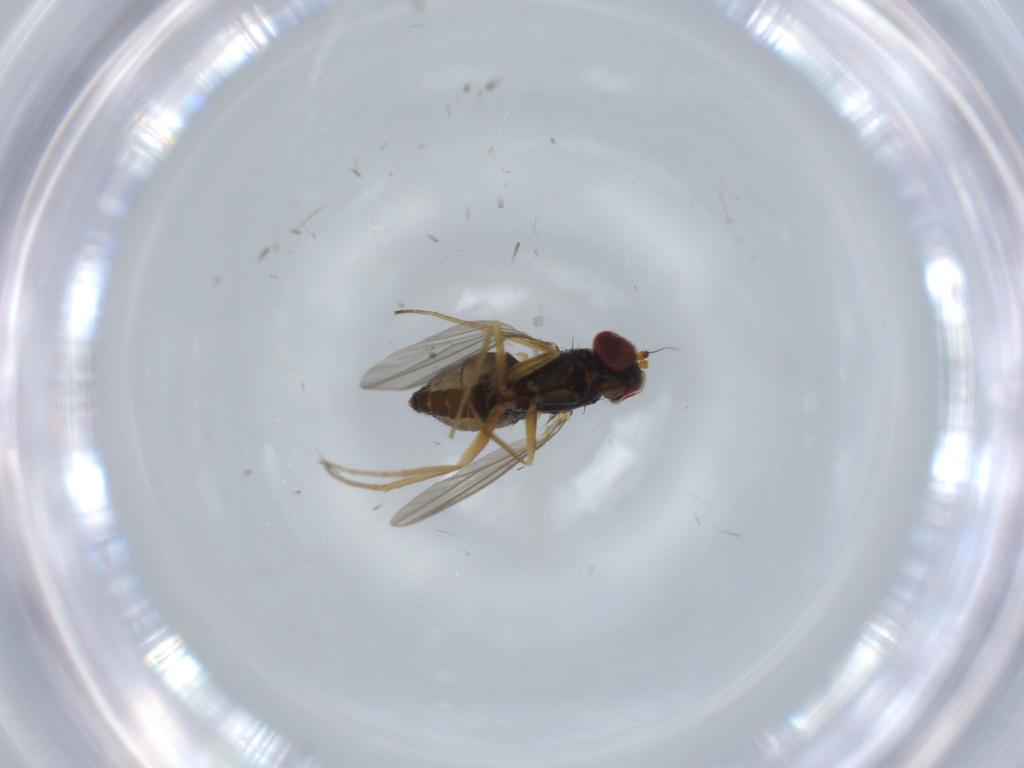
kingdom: Animalia
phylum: Arthropoda
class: Insecta
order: Diptera
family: Dolichopodidae
